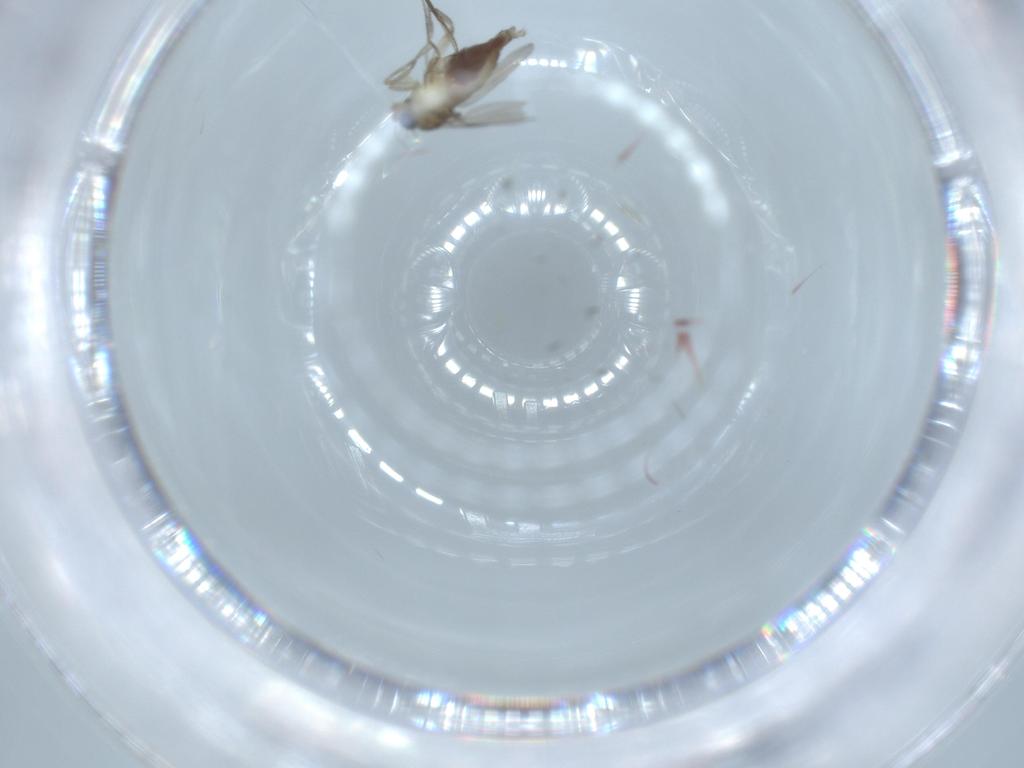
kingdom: Animalia
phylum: Arthropoda
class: Insecta
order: Diptera
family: Phoridae
